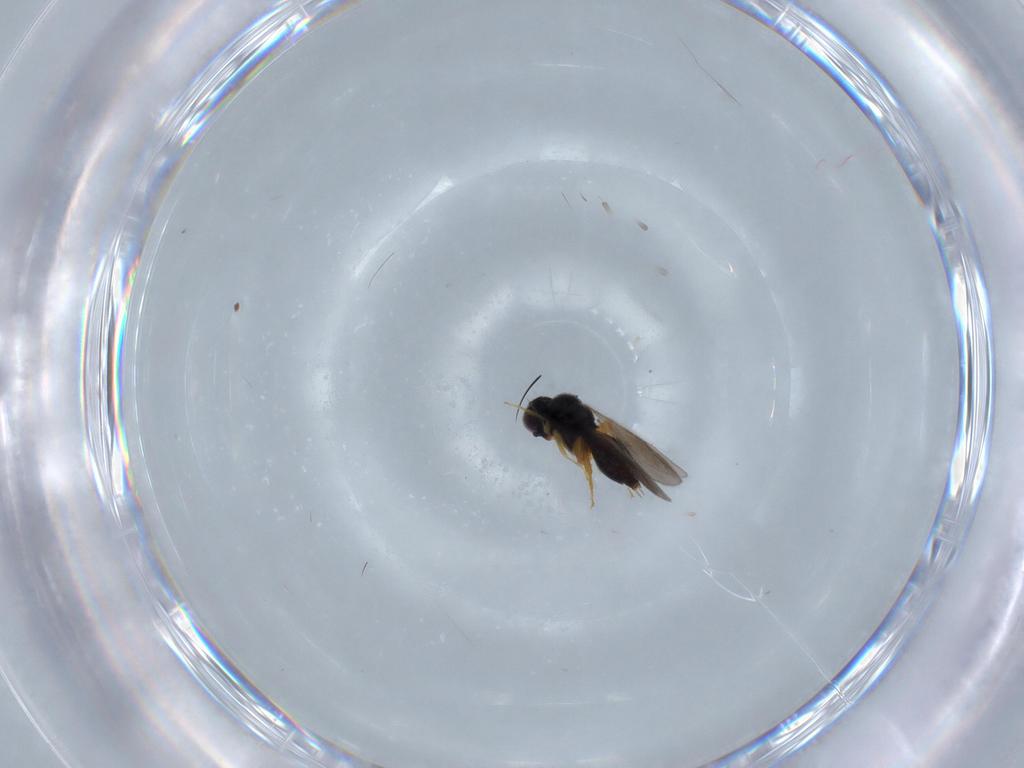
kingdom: Animalia
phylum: Arthropoda
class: Insecta
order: Hymenoptera
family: Ceraphronidae
